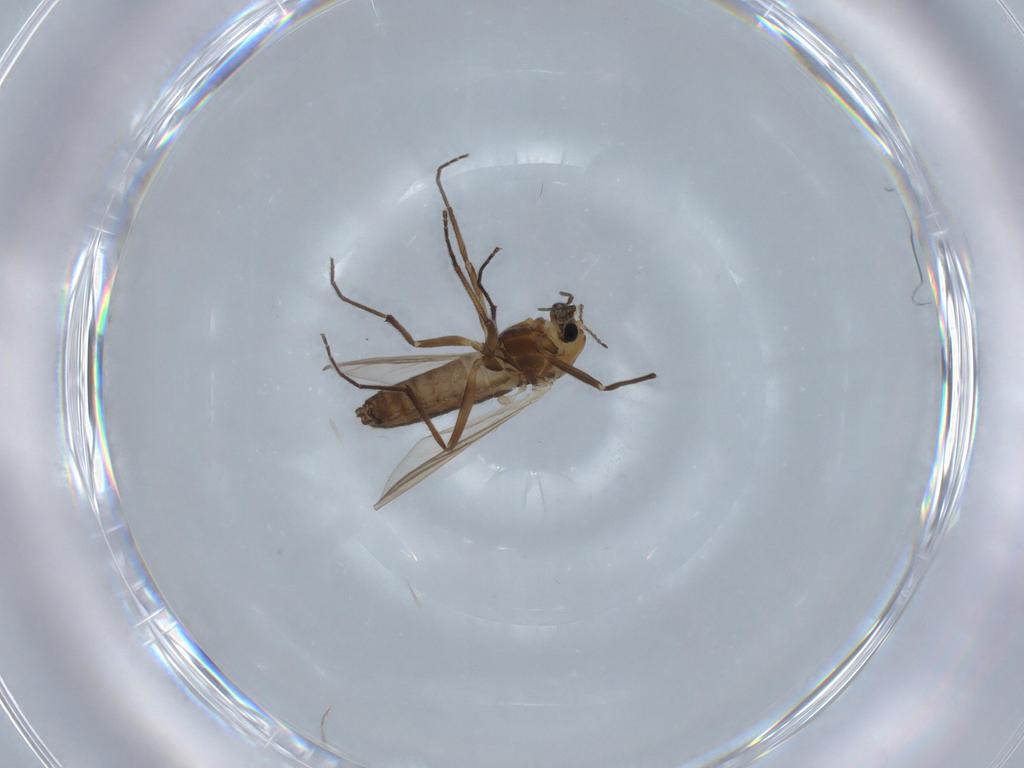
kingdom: Animalia
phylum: Arthropoda
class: Insecta
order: Diptera
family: Chironomidae
